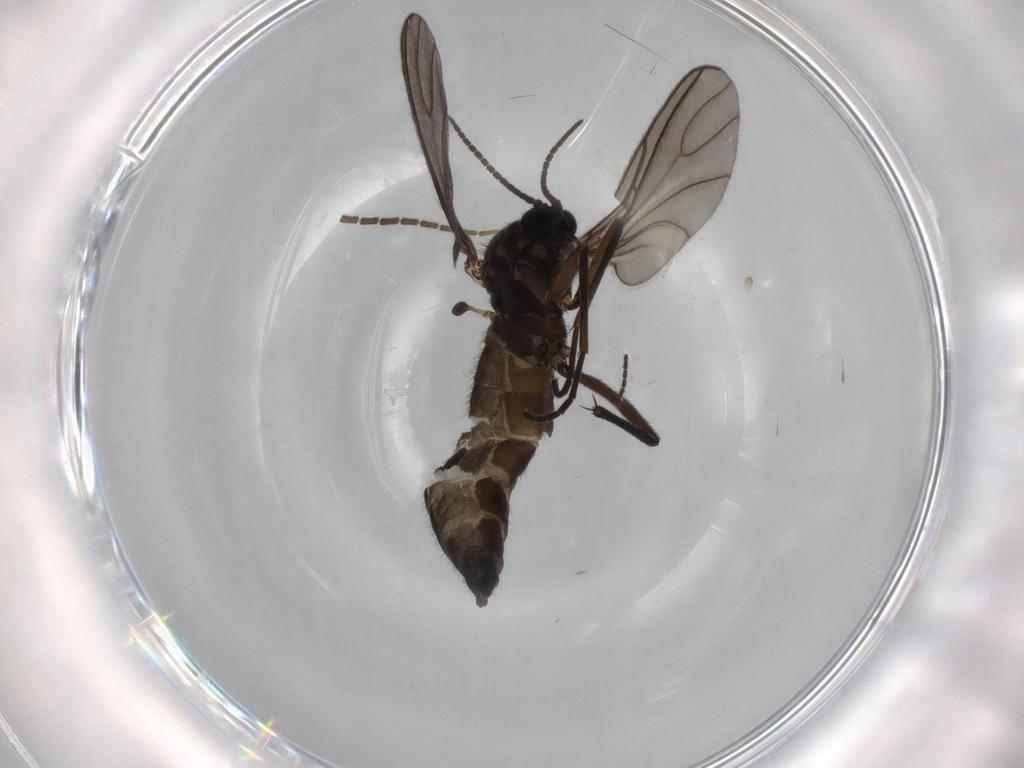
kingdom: Animalia
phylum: Arthropoda
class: Insecta
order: Diptera
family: Sciaridae
